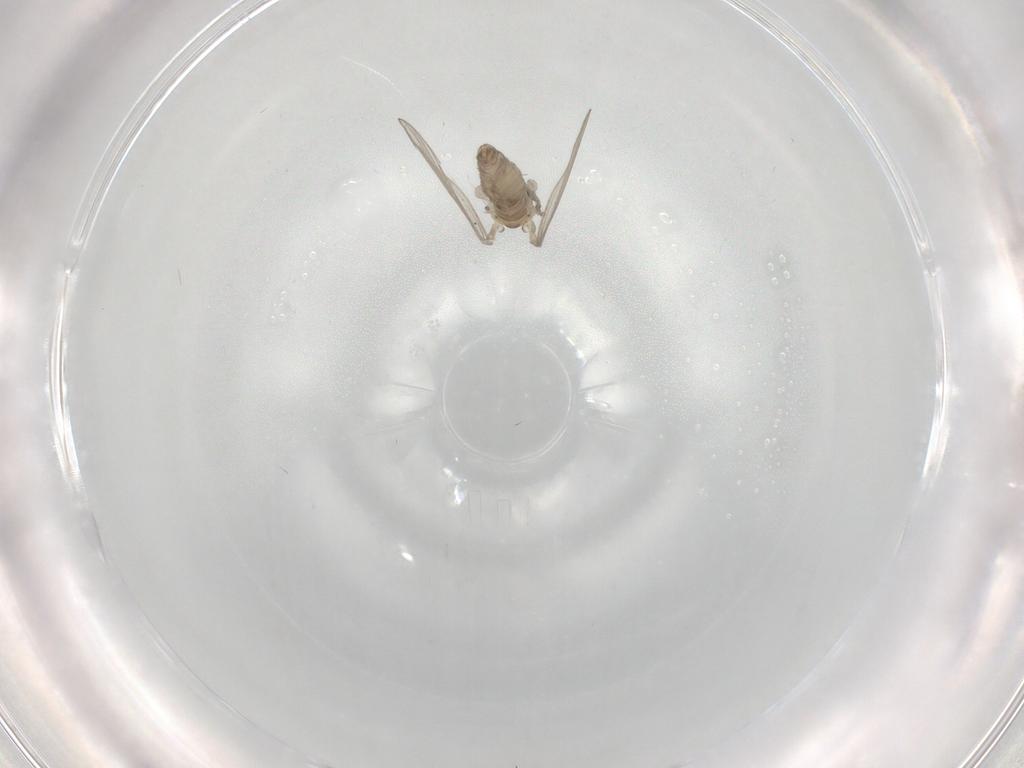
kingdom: Animalia
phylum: Arthropoda
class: Insecta
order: Diptera
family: Psychodidae
